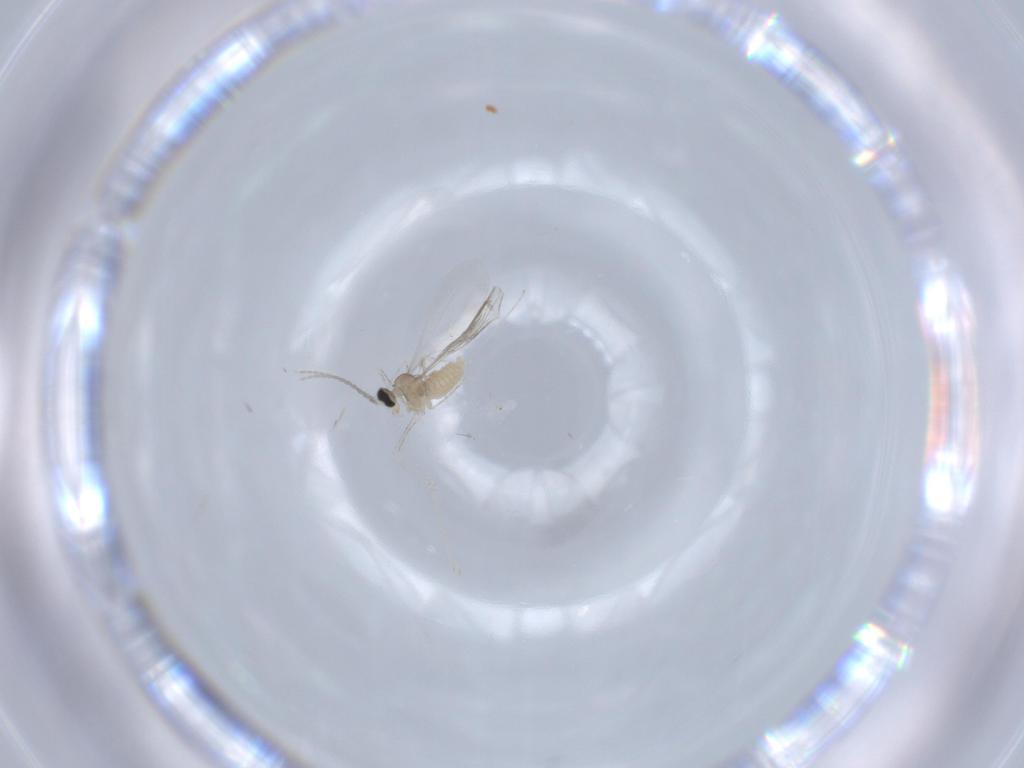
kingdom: Animalia
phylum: Arthropoda
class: Insecta
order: Diptera
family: Cecidomyiidae
